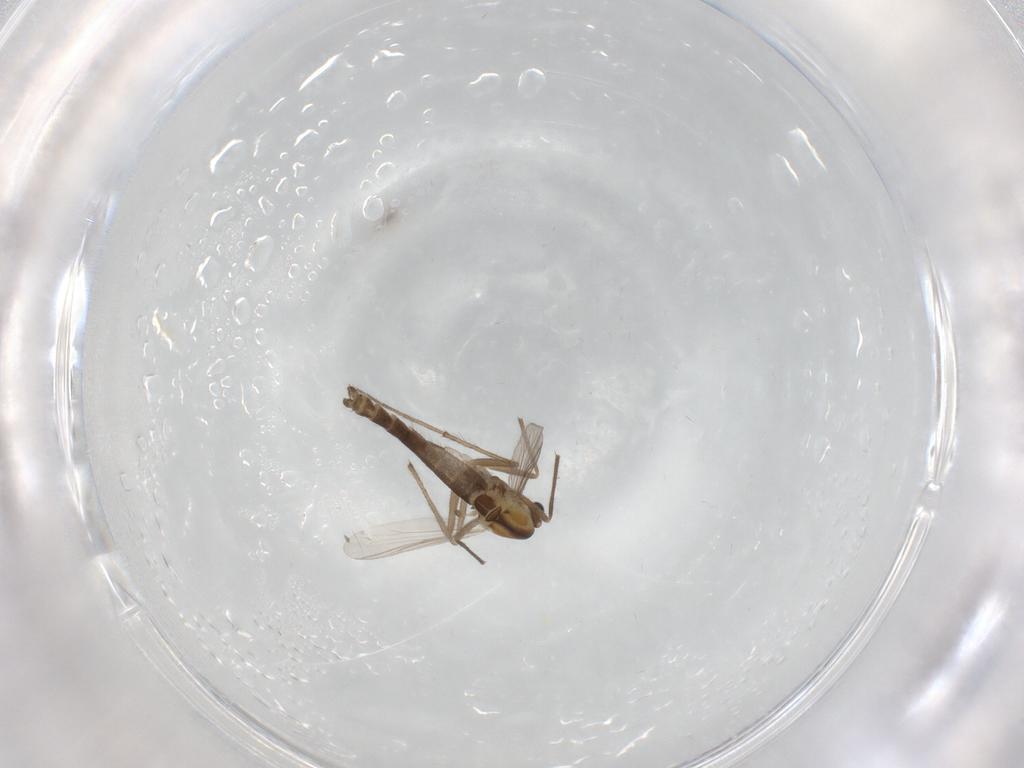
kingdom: Animalia
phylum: Arthropoda
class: Insecta
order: Diptera
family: Chironomidae
